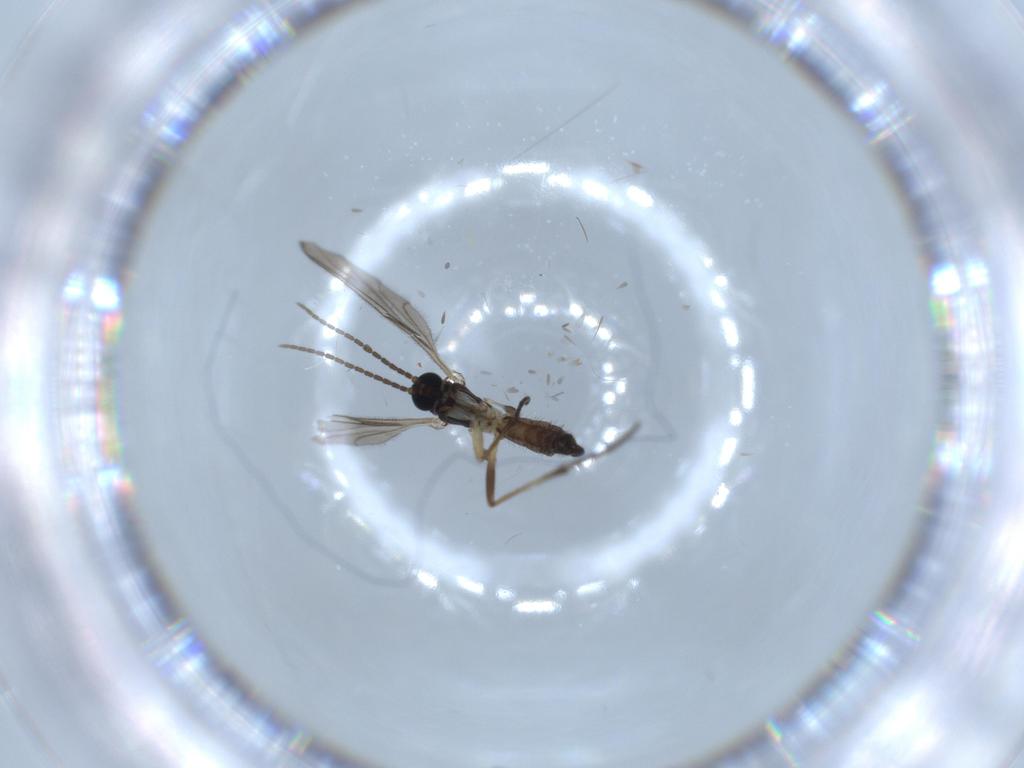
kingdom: Animalia
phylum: Arthropoda
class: Insecta
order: Diptera
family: Sciaridae
